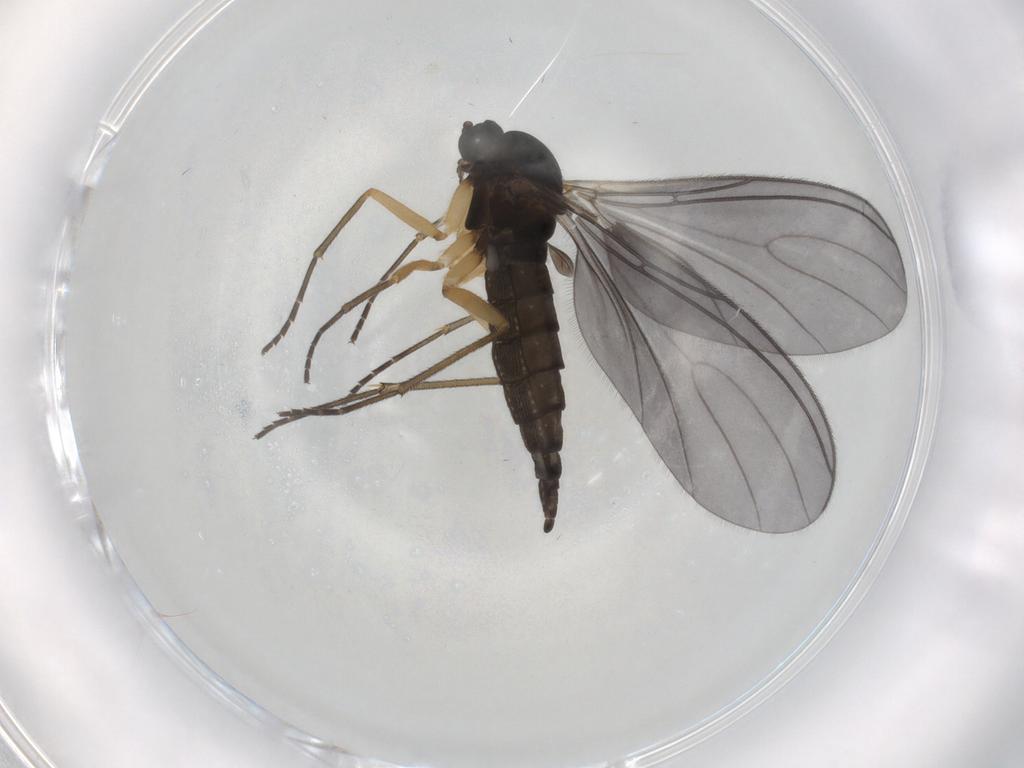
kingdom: Animalia
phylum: Arthropoda
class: Insecta
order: Diptera
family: Sciaridae
